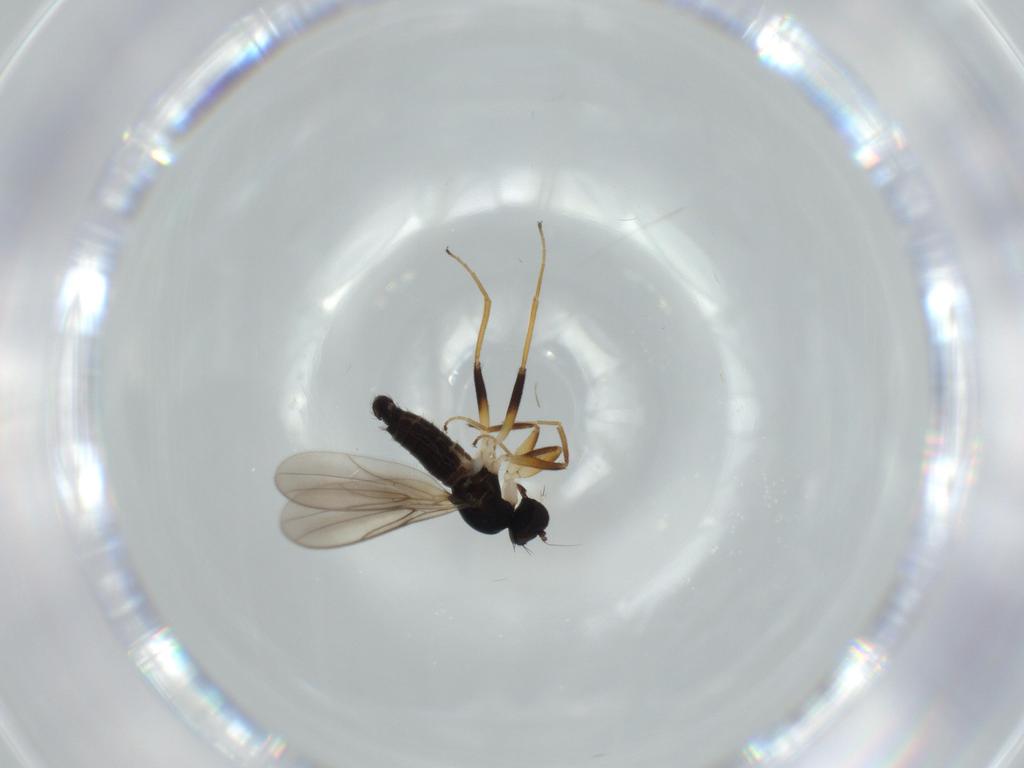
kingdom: Animalia
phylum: Arthropoda
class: Insecta
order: Diptera
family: Hybotidae
